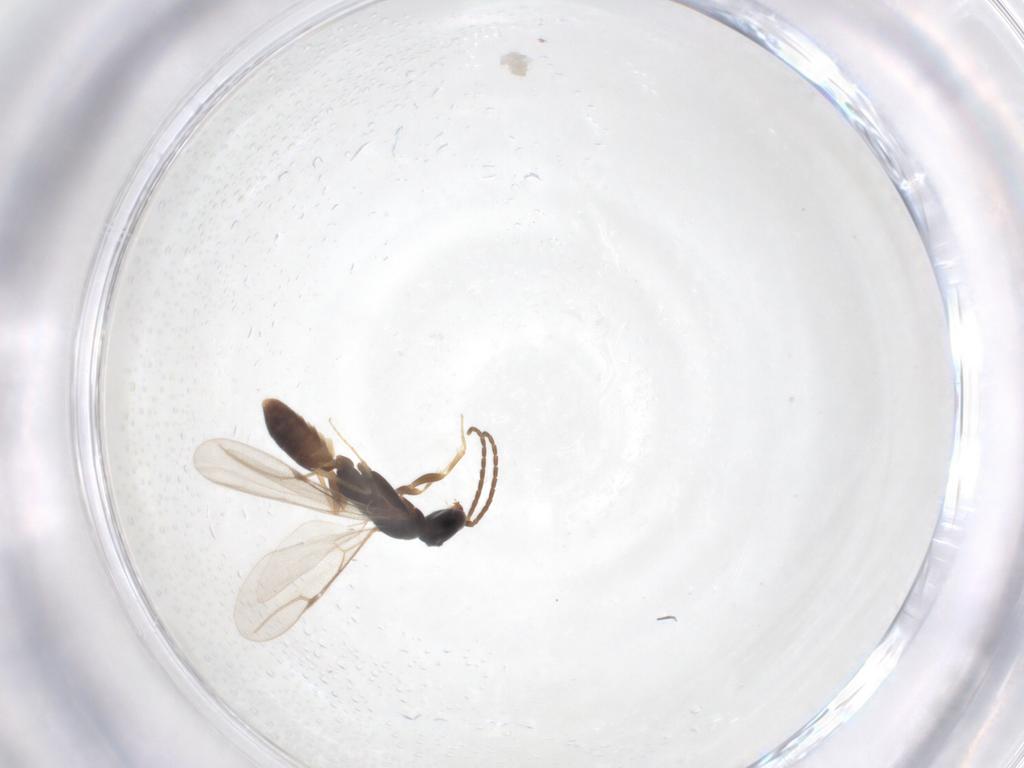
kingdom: Animalia
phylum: Arthropoda
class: Insecta
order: Hymenoptera
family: Bethylidae
